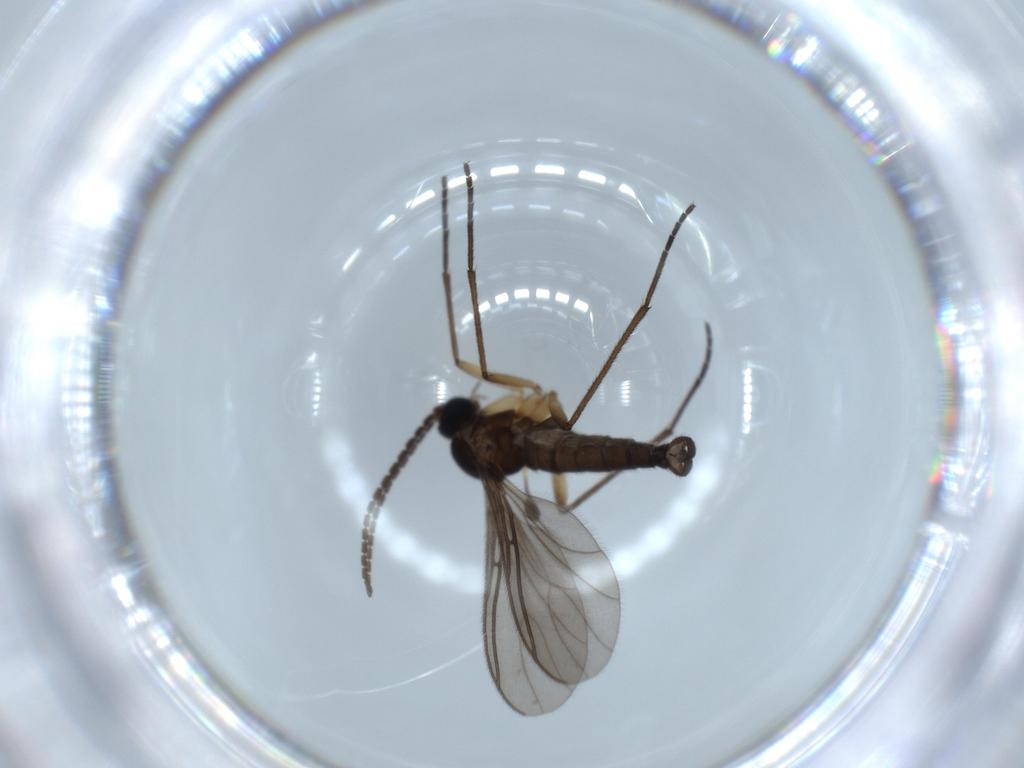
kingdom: Animalia
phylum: Arthropoda
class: Insecta
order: Diptera
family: Sciaridae
